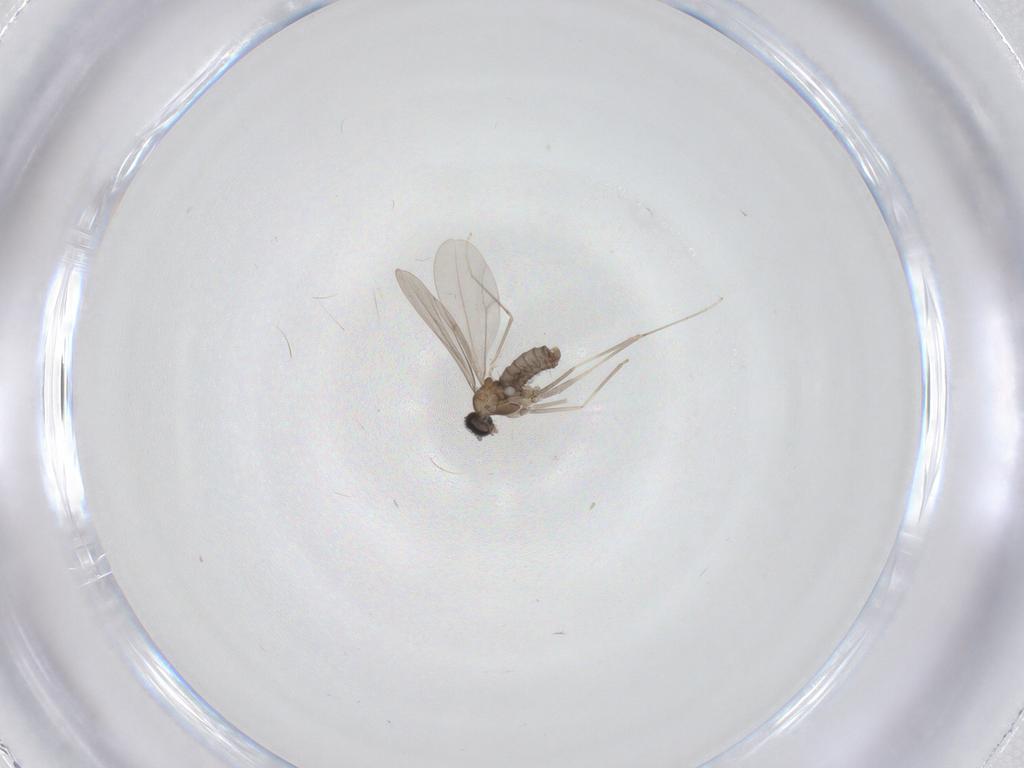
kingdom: Animalia
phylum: Arthropoda
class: Insecta
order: Diptera
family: Cecidomyiidae
